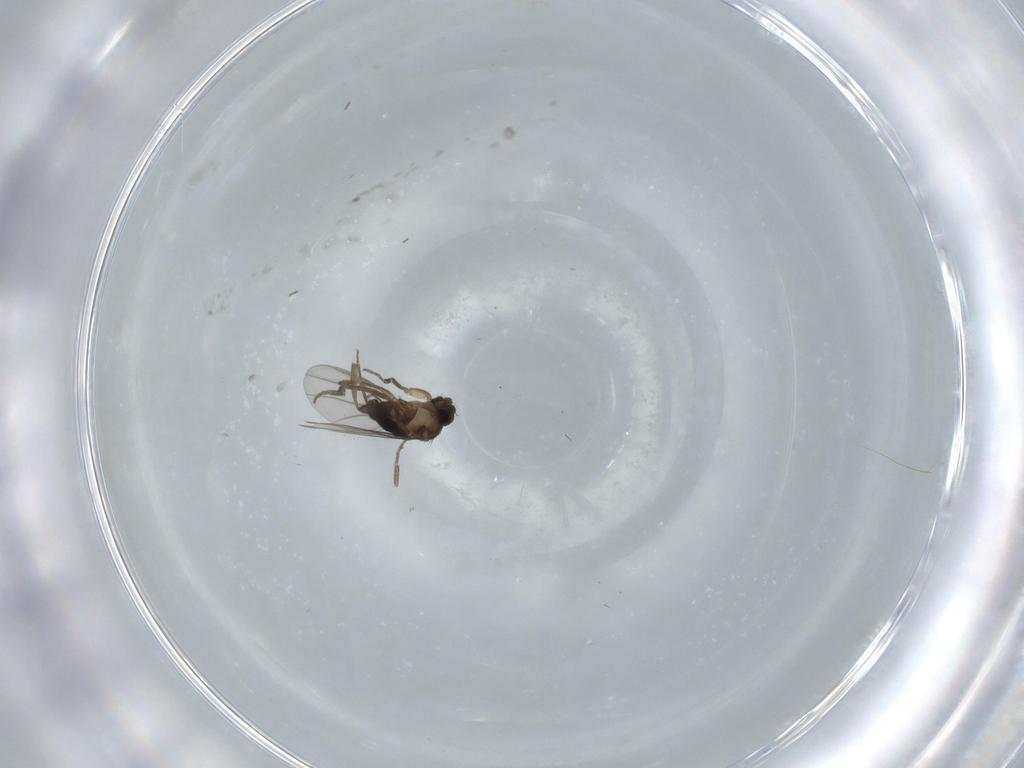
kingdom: Animalia
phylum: Arthropoda
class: Insecta
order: Diptera
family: Phoridae
